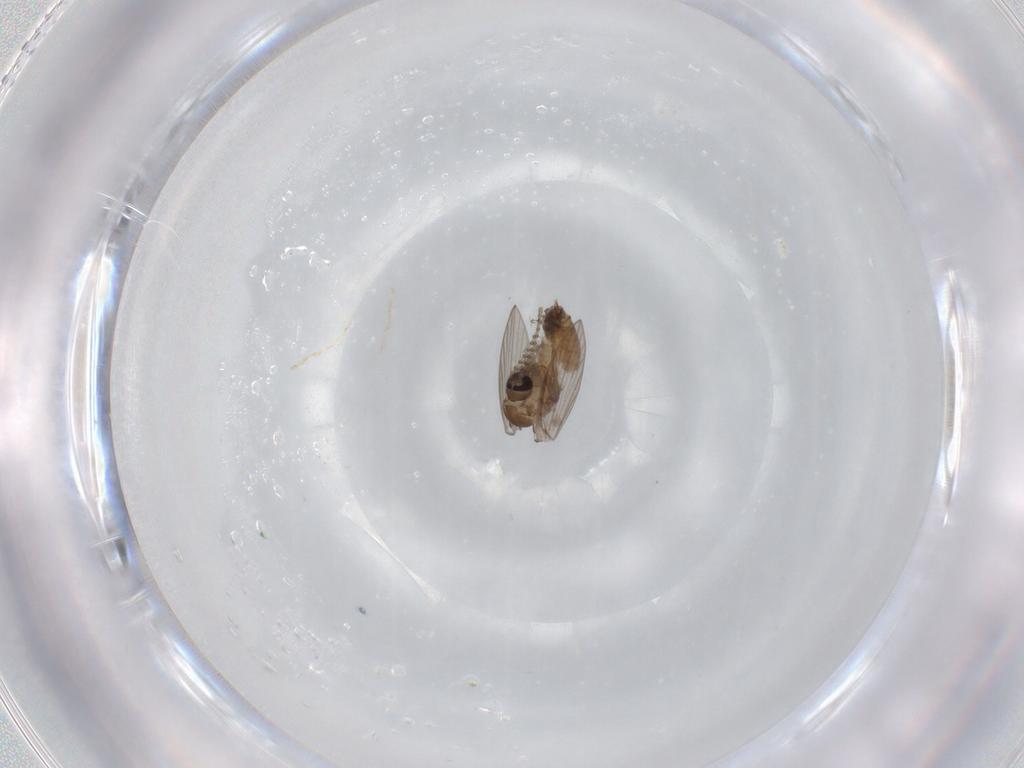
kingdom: Animalia
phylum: Arthropoda
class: Insecta
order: Diptera
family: Psychodidae
